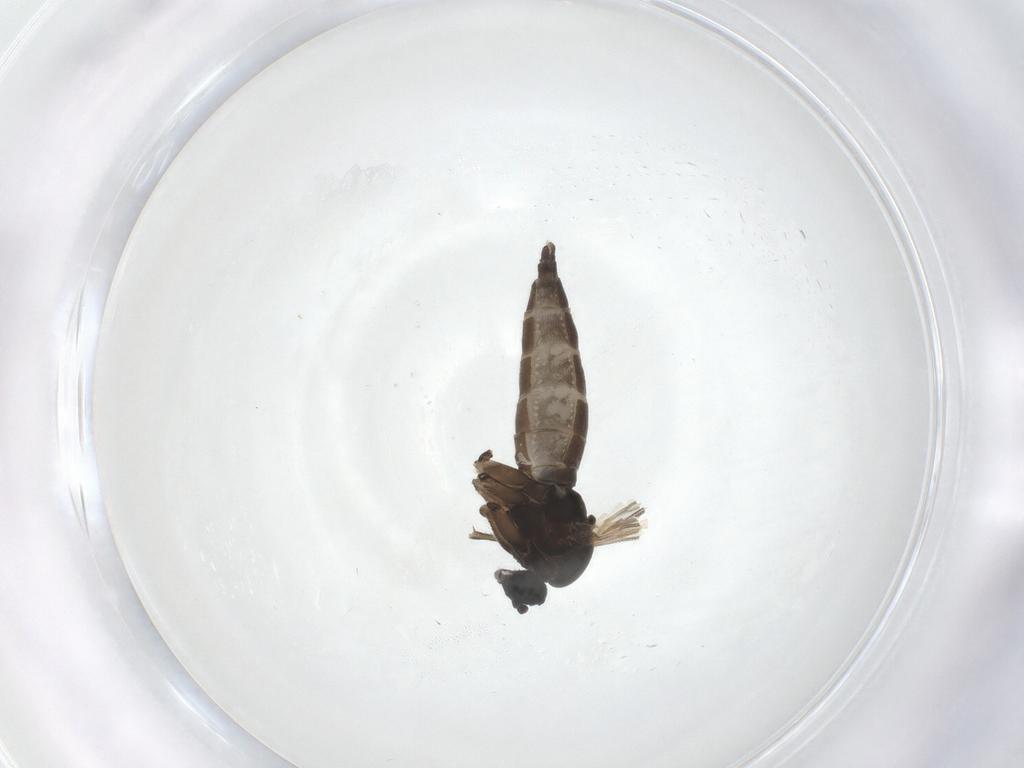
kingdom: Animalia
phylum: Arthropoda
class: Insecta
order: Diptera
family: Sciaridae
